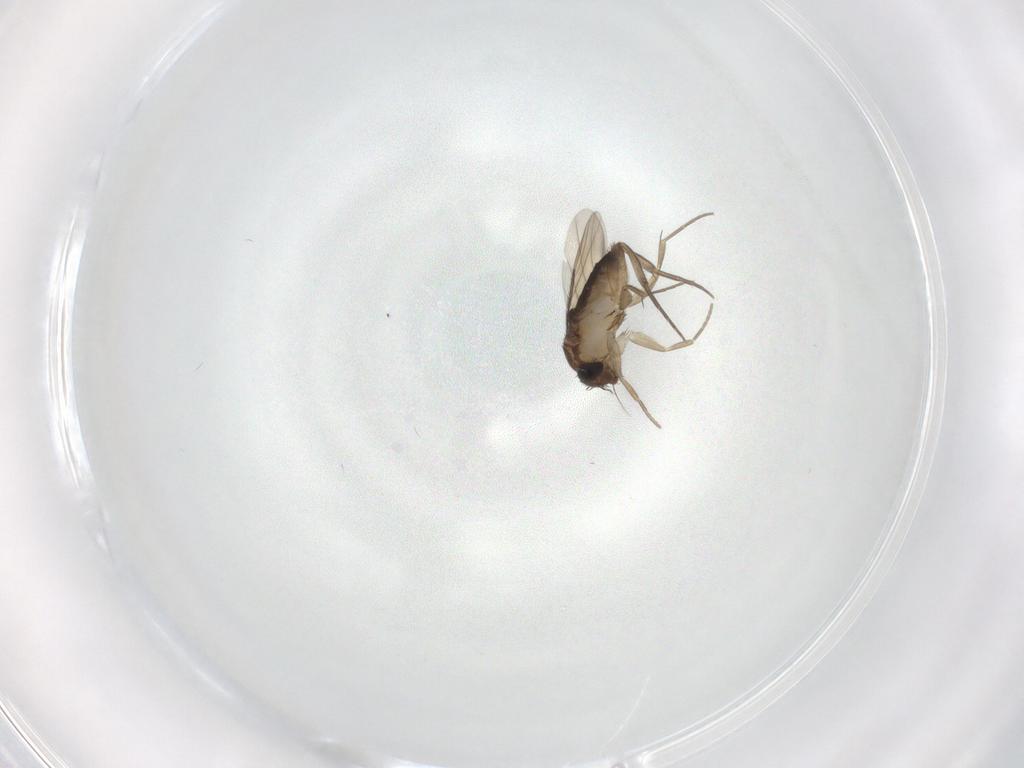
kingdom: Animalia
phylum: Arthropoda
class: Insecta
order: Diptera
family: Phoridae
